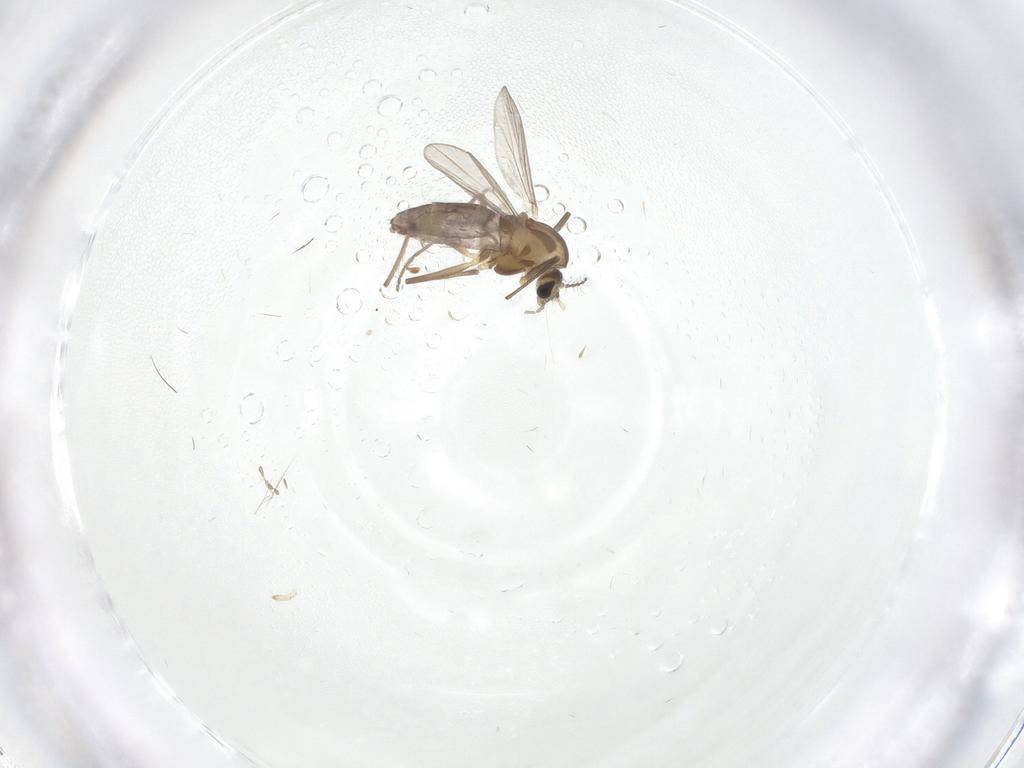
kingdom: Animalia
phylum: Arthropoda
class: Insecta
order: Diptera
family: Chironomidae
